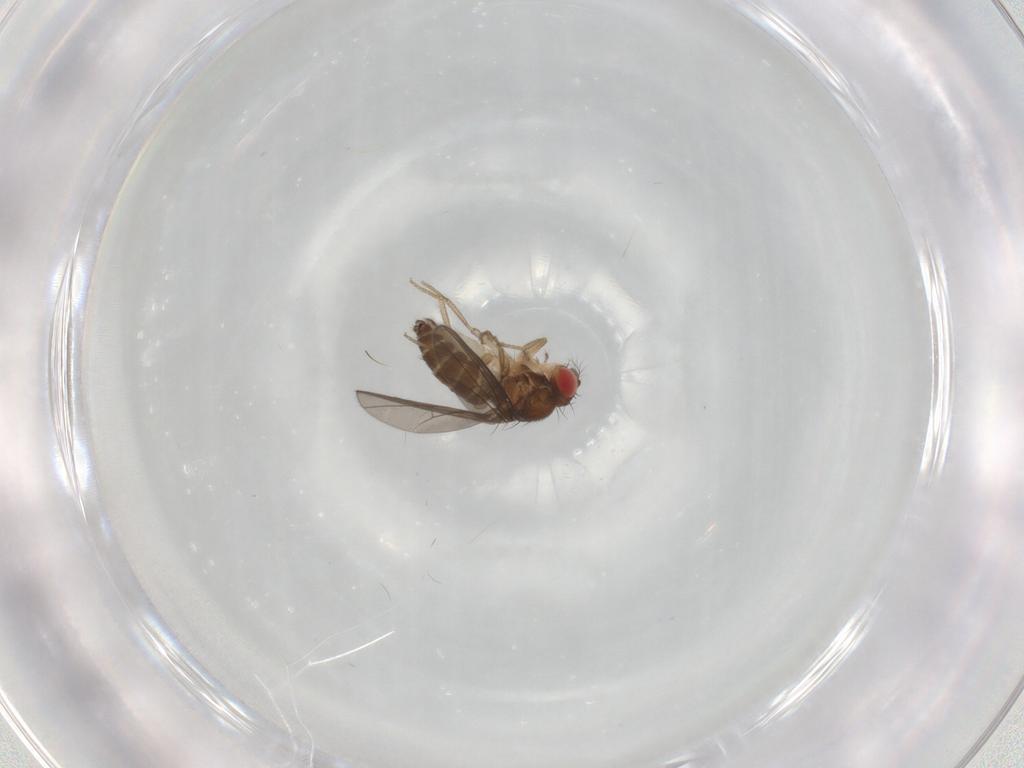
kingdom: Animalia
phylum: Arthropoda
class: Insecta
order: Diptera
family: Drosophilidae
